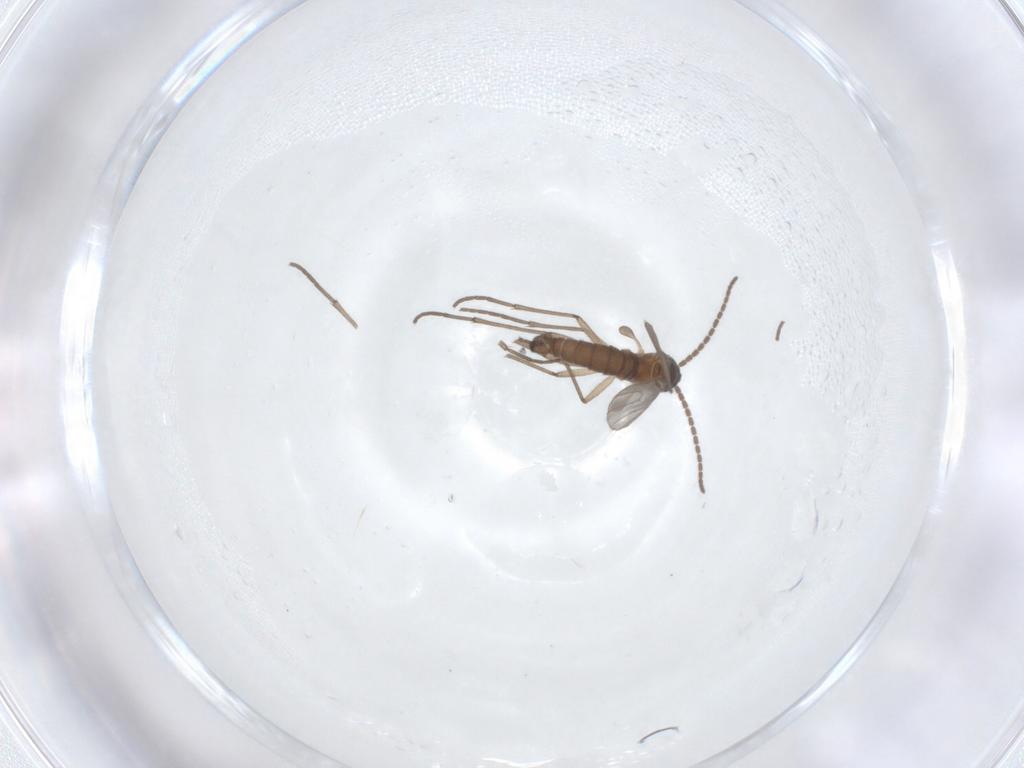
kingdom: Animalia
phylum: Arthropoda
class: Insecta
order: Diptera
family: Sciaridae
